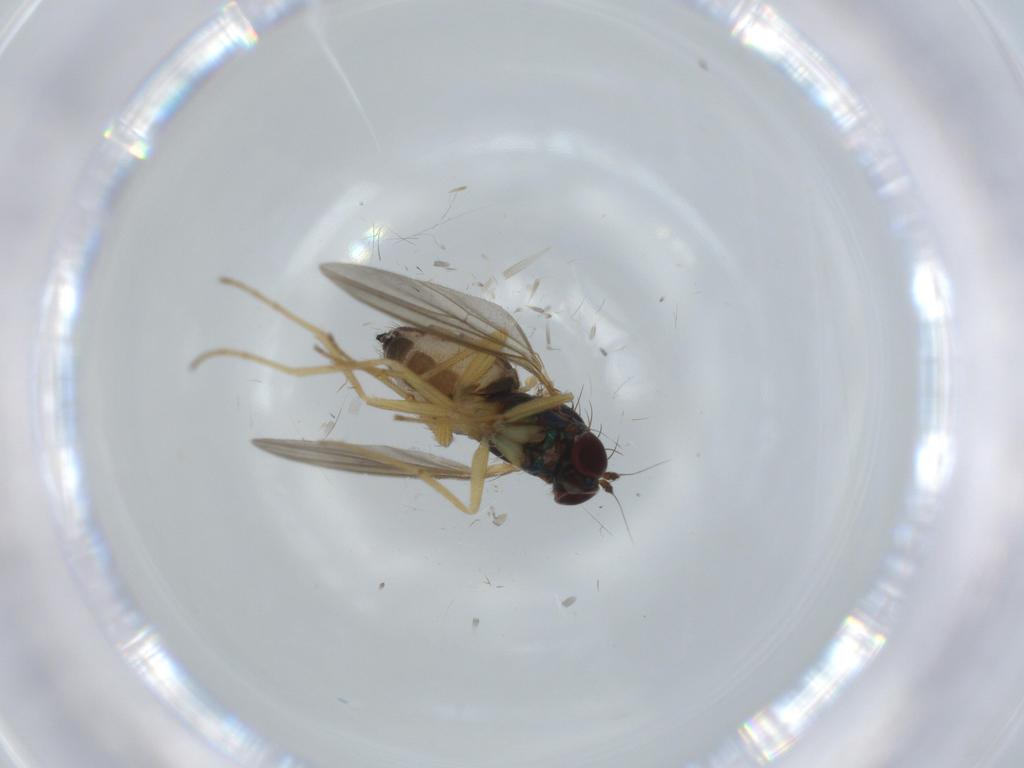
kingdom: Animalia
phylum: Arthropoda
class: Insecta
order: Diptera
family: Dolichopodidae
